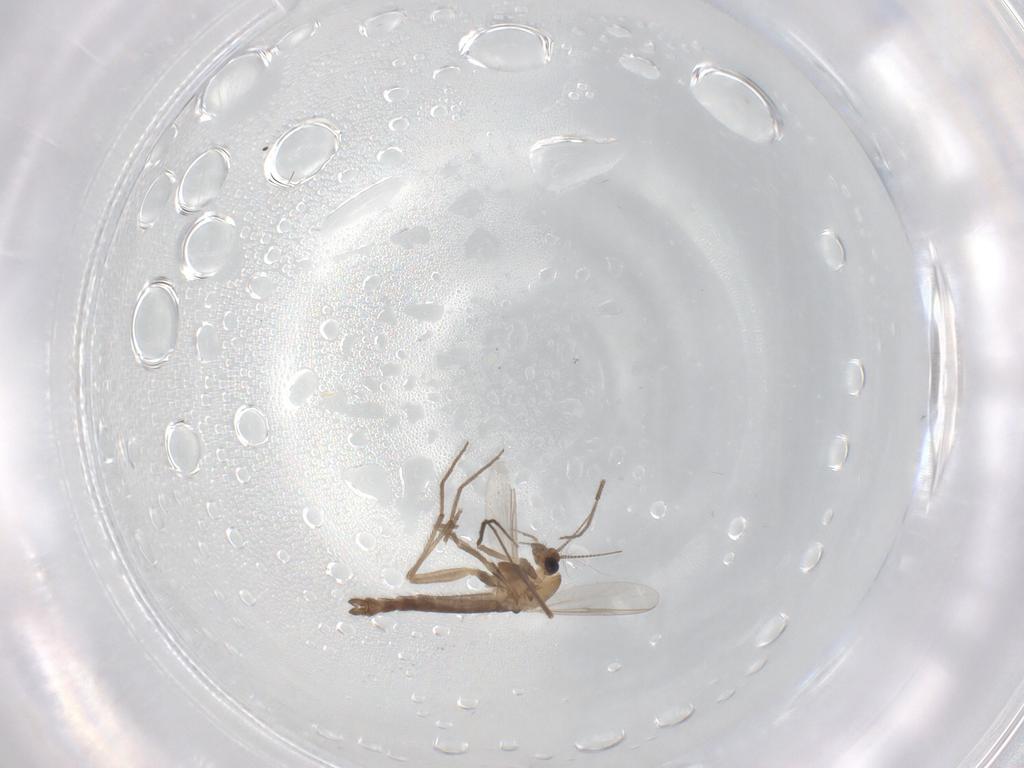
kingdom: Animalia
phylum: Arthropoda
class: Insecta
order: Diptera
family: Chironomidae
